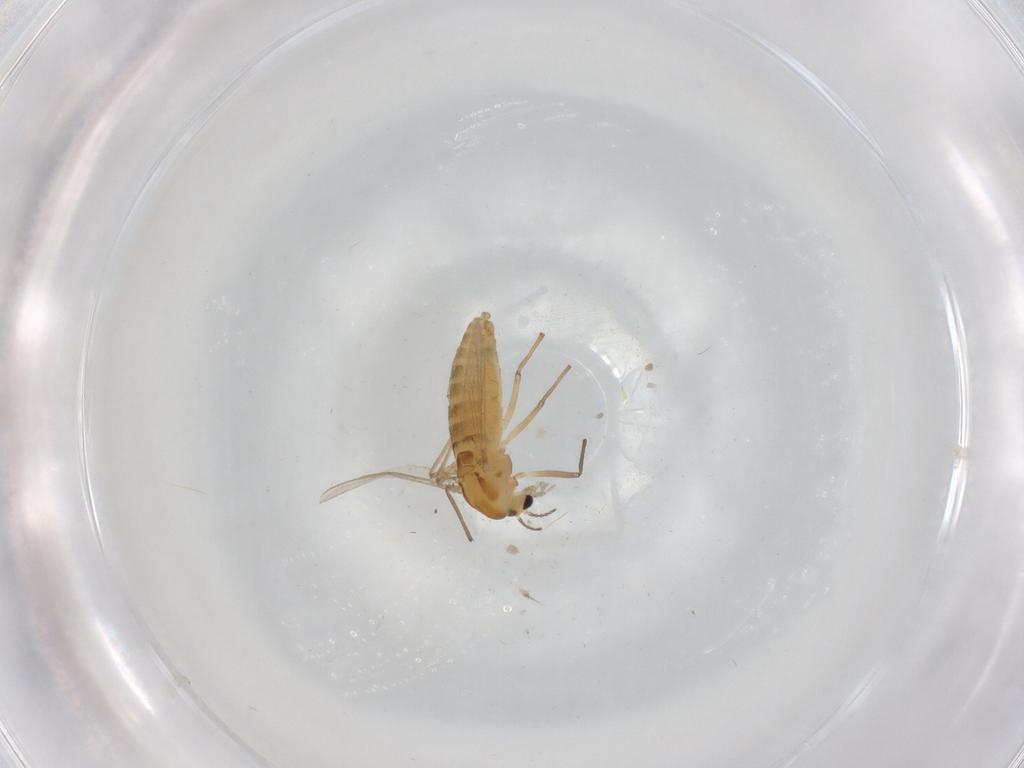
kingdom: Animalia
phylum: Arthropoda
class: Insecta
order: Diptera
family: Chironomidae
